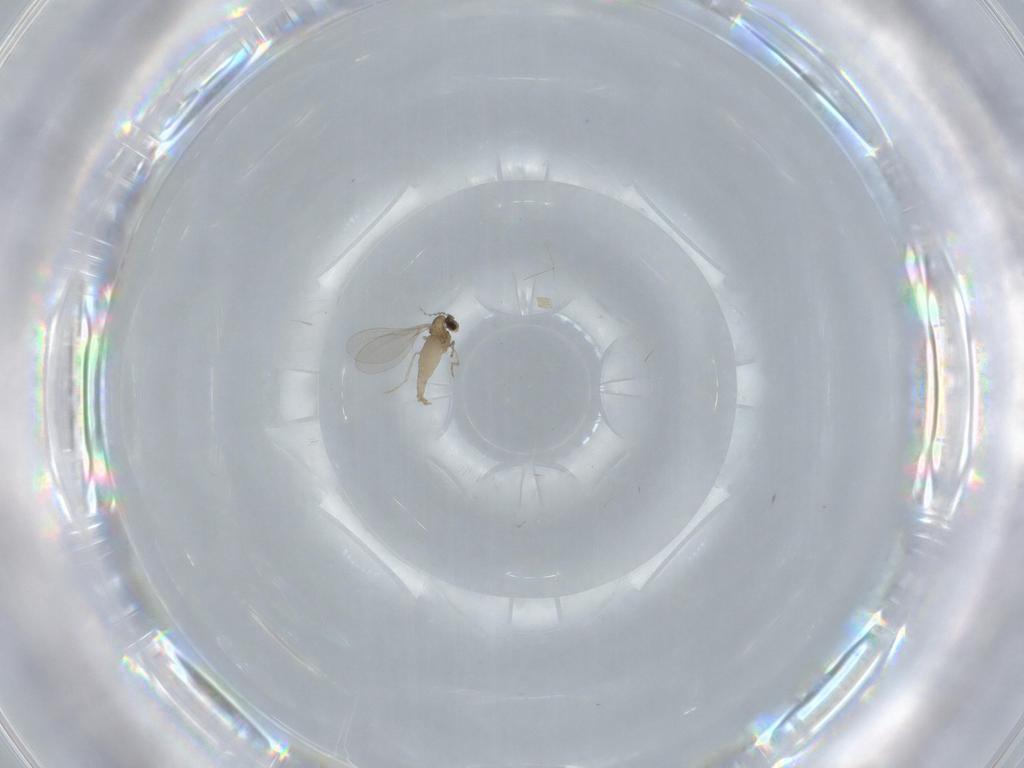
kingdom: Animalia
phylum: Arthropoda
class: Insecta
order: Diptera
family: Cecidomyiidae
